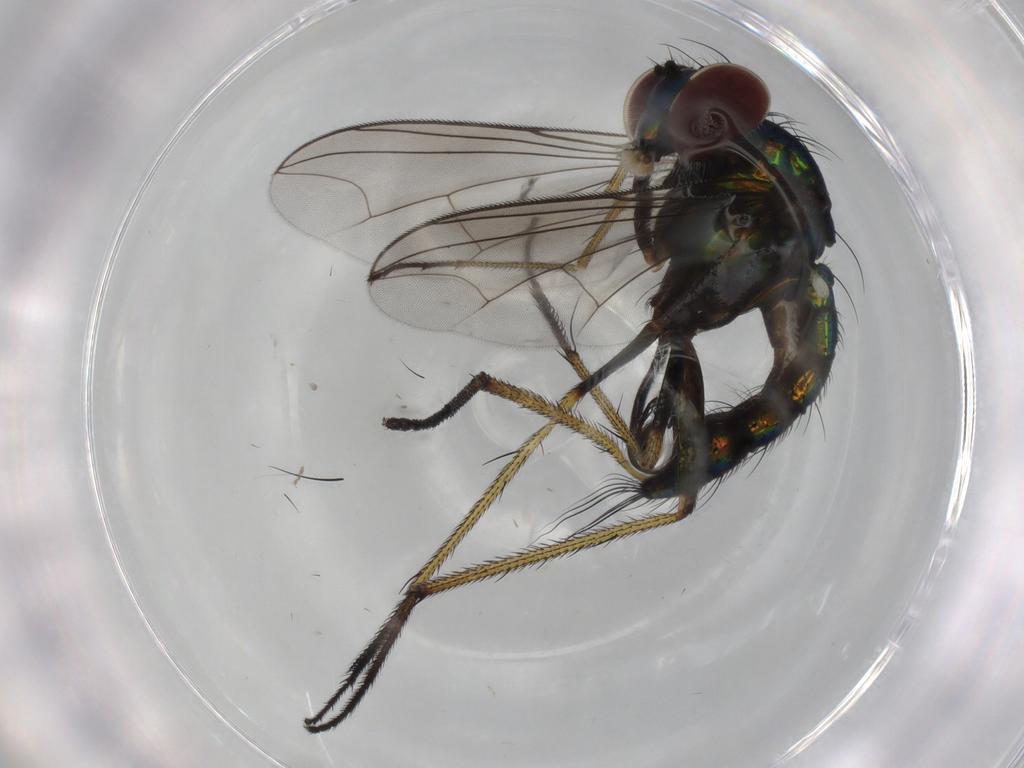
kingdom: Animalia
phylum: Arthropoda
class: Insecta
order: Diptera
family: Dolichopodidae
